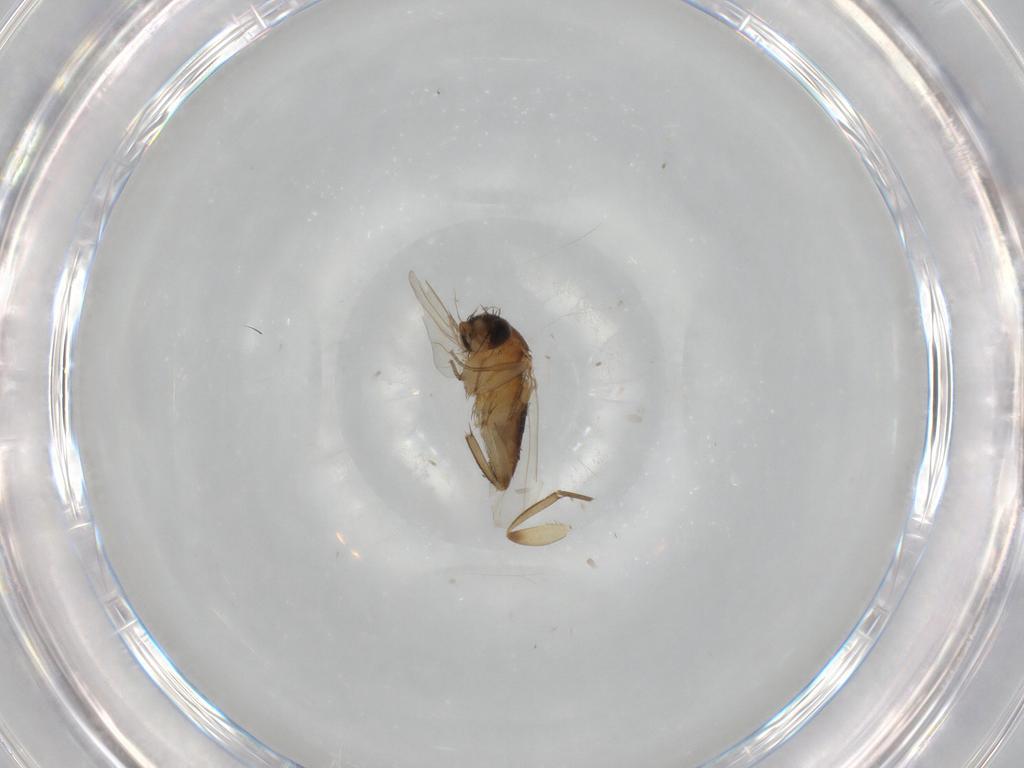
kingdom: Animalia
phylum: Arthropoda
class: Insecta
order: Diptera
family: Phoridae
